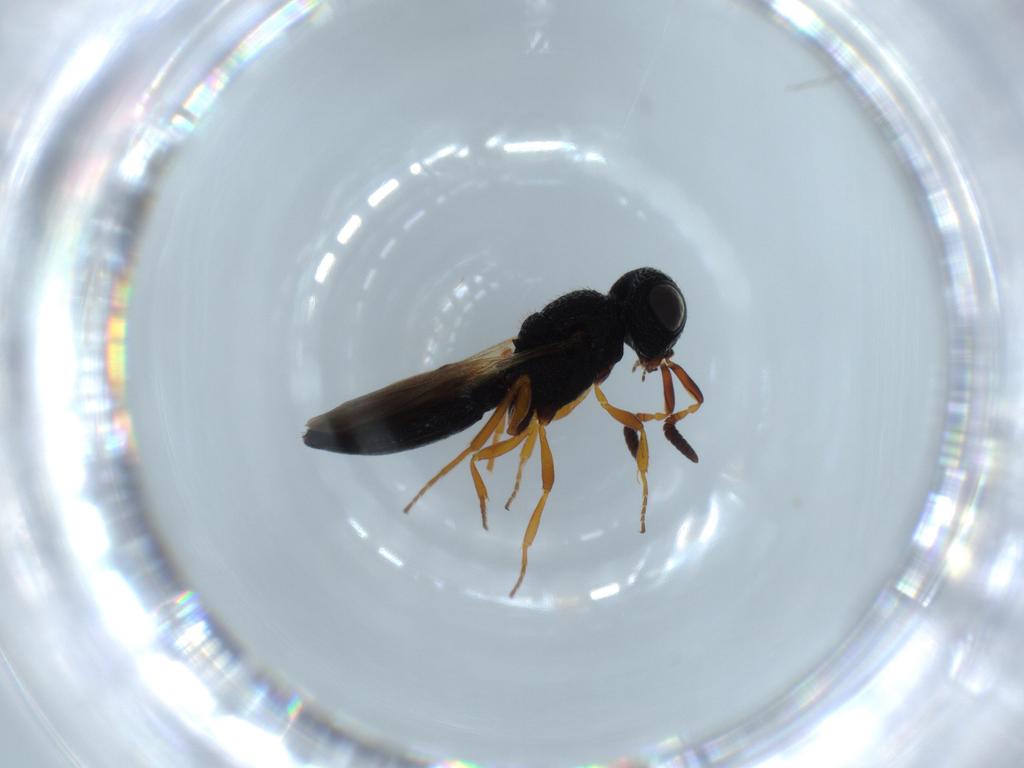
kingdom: Animalia
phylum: Arthropoda
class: Insecta
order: Hymenoptera
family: Scelionidae
